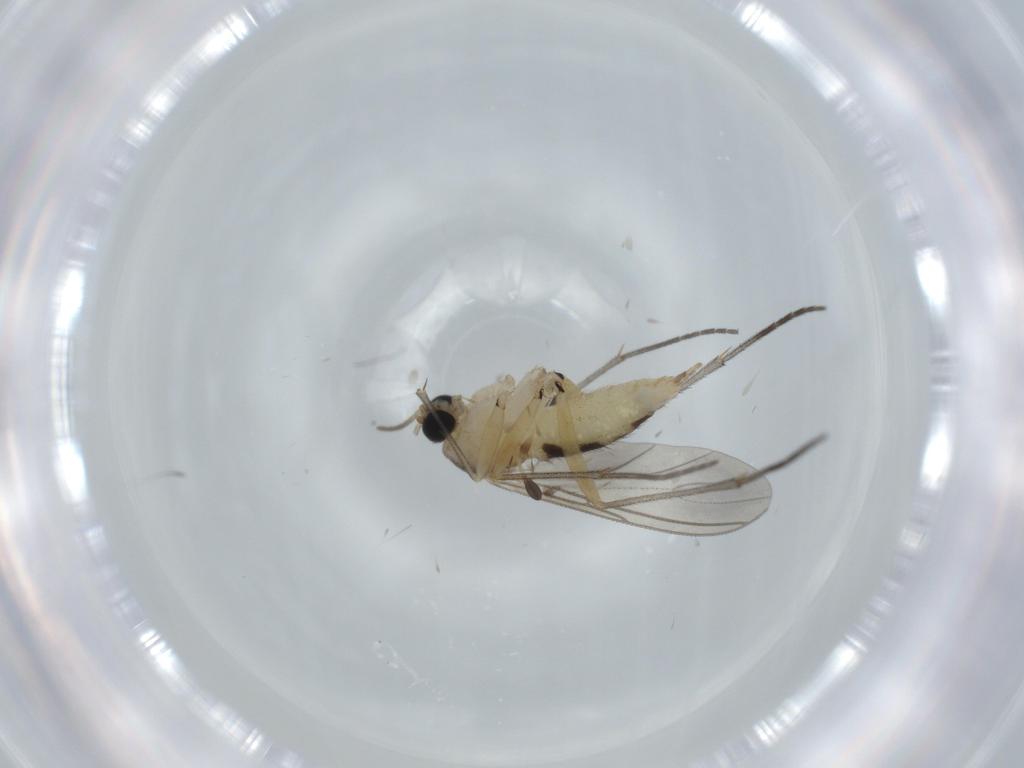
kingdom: Animalia
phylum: Arthropoda
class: Insecta
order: Diptera
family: Sciaridae
